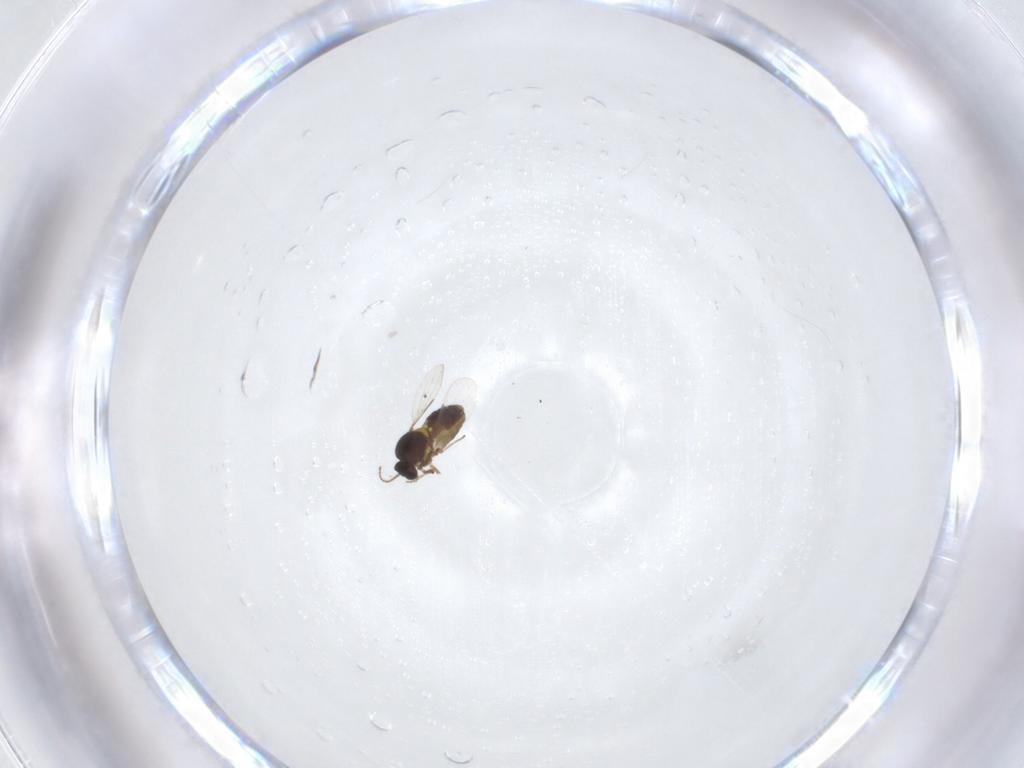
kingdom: Animalia
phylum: Arthropoda
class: Insecta
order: Diptera
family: Ceratopogonidae
